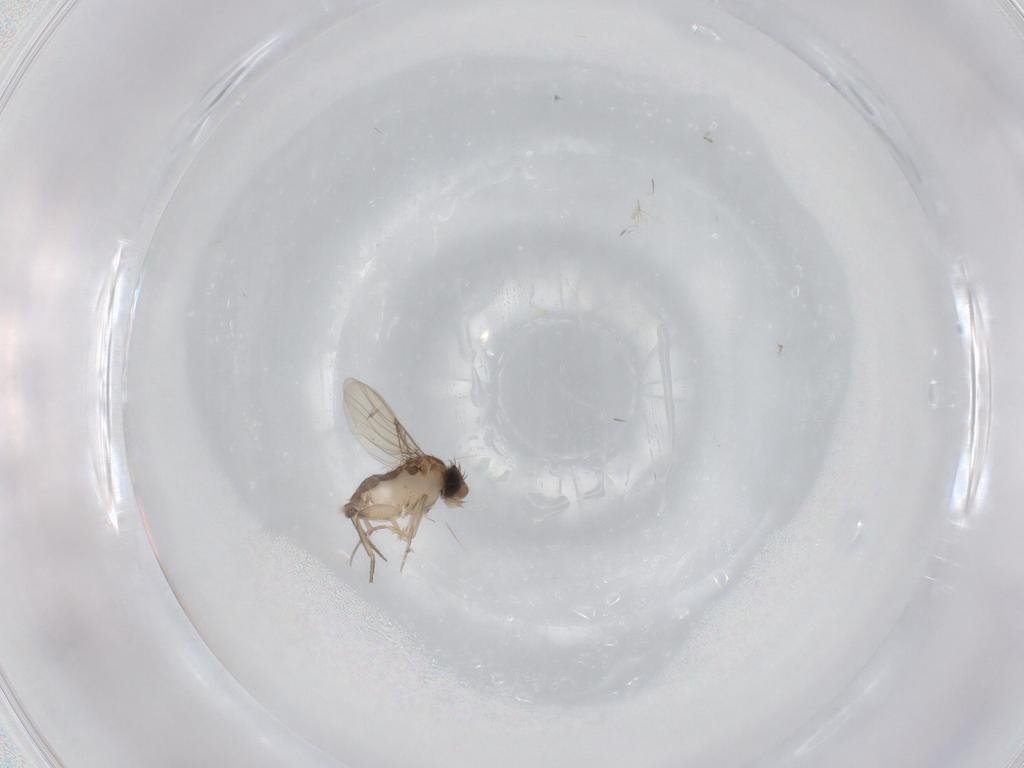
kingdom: Animalia
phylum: Arthropoda
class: Insecta
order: Diptera
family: Phoridae
